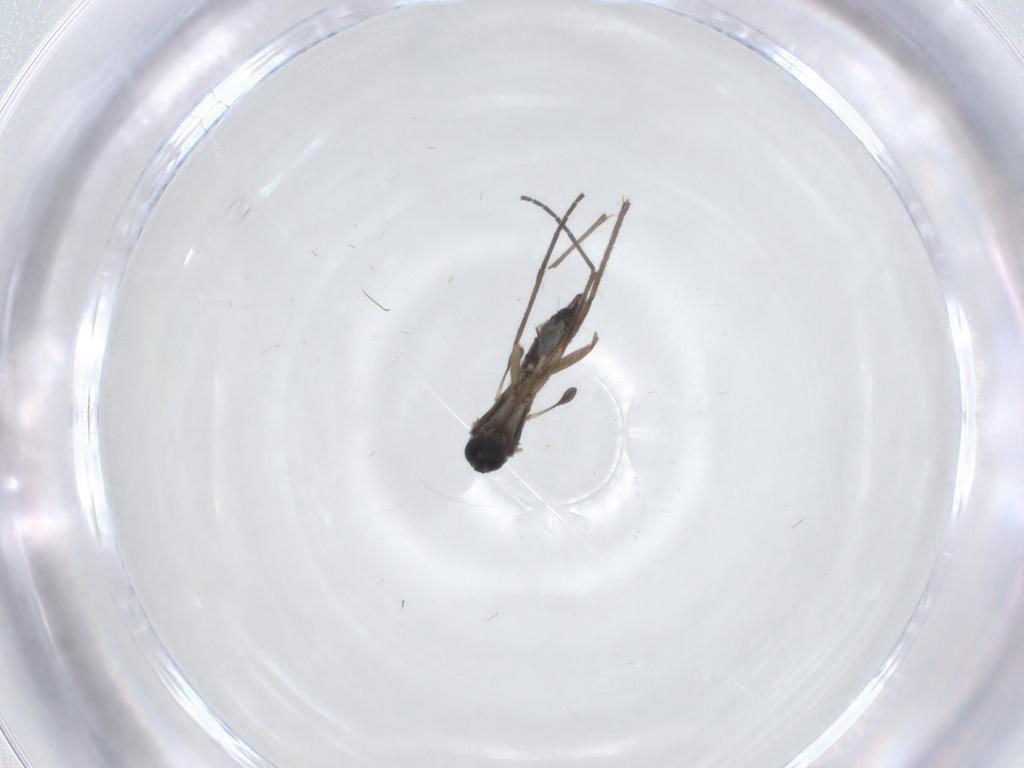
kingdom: Animalia
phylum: Arthropoda
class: Insecta
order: Diptera
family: Sciaridae
